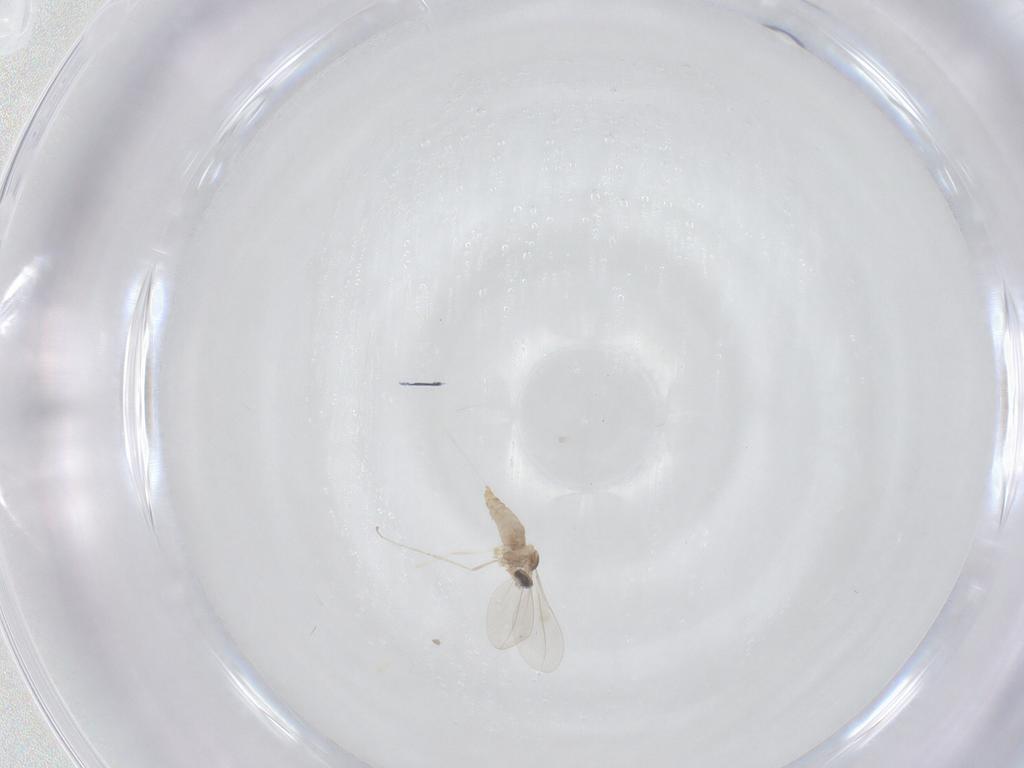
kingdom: Animalia
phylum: Arthropoda
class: Insecta
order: Diptera
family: Cecidomyiidae
